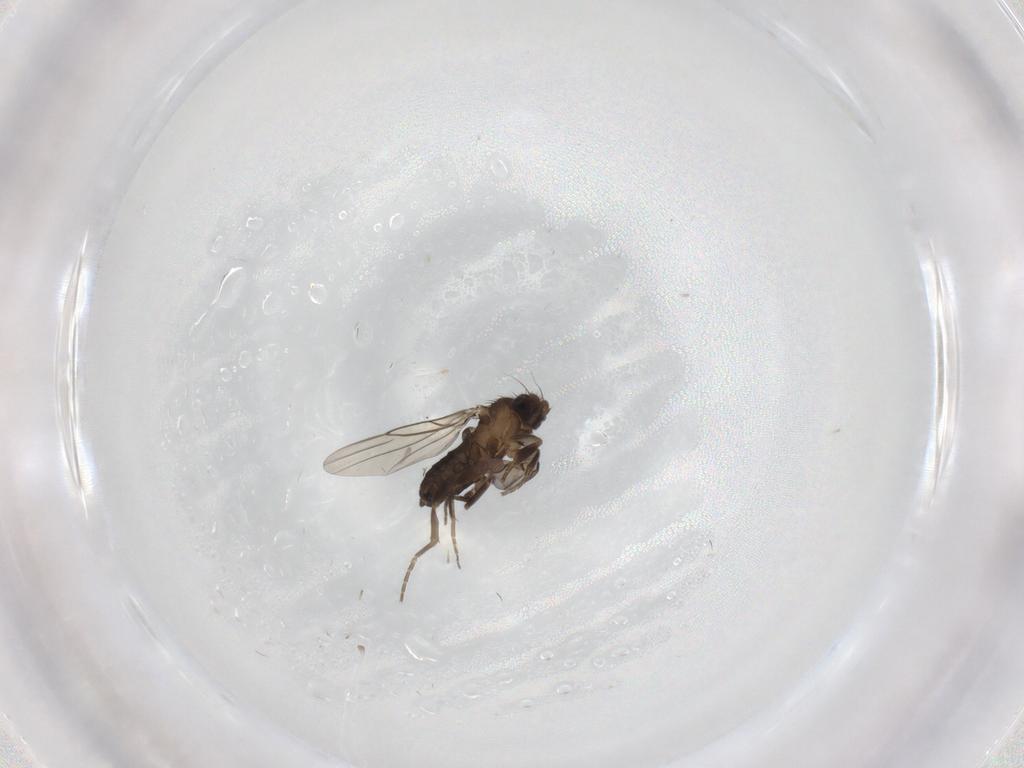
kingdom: Animalia
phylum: Arthropoda
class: Insecta
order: Diptera
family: Phoridae
